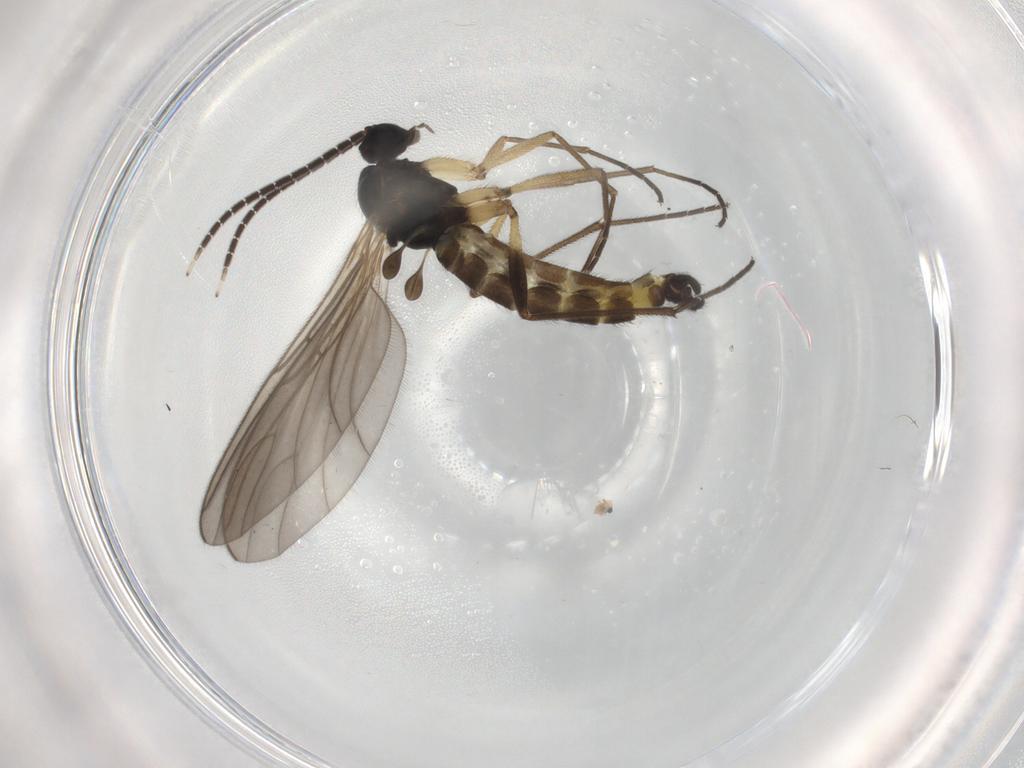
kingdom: Animalia
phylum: Arthropoda
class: Insecta
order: Diptera
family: Sciaridae
